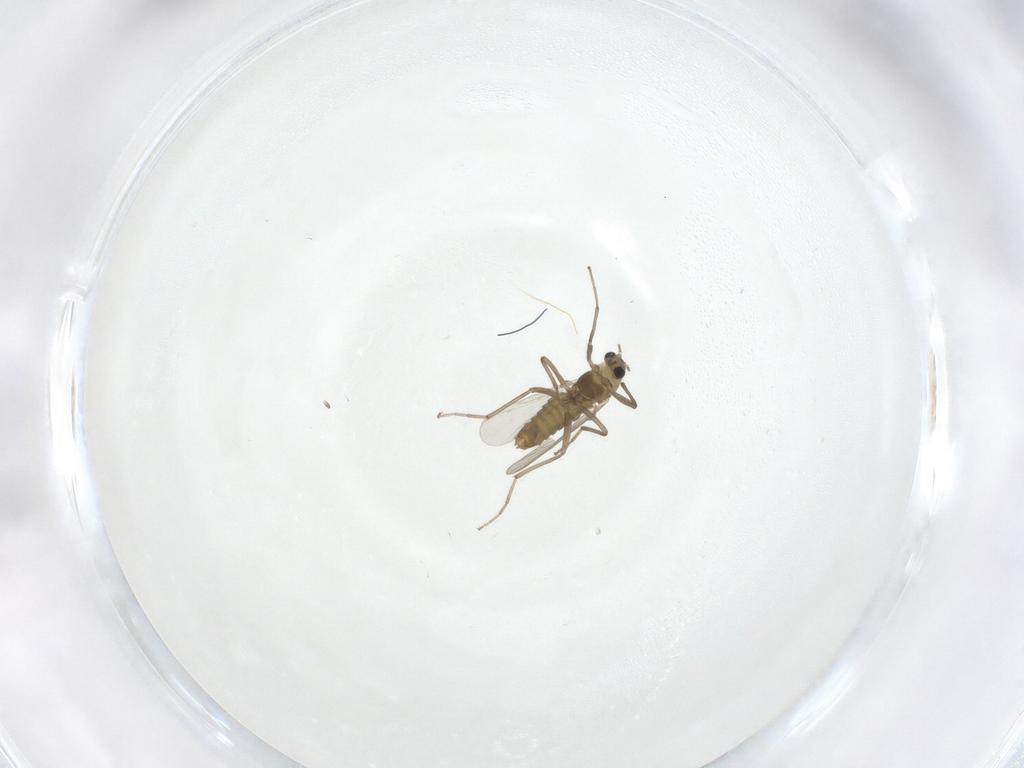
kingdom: Animalia
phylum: Arthropoda
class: Insecta
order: Diptera
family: Chironomidae
